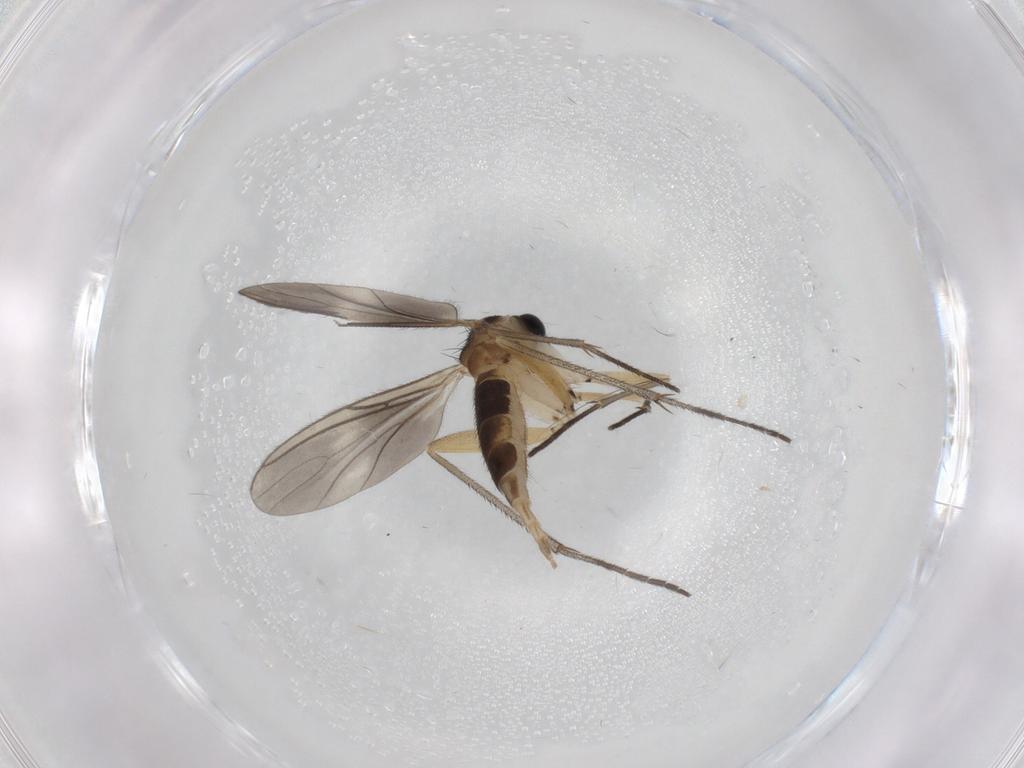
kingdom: Animalia
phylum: Arthropoda
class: Insecta
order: Diptera
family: Sciaridae
